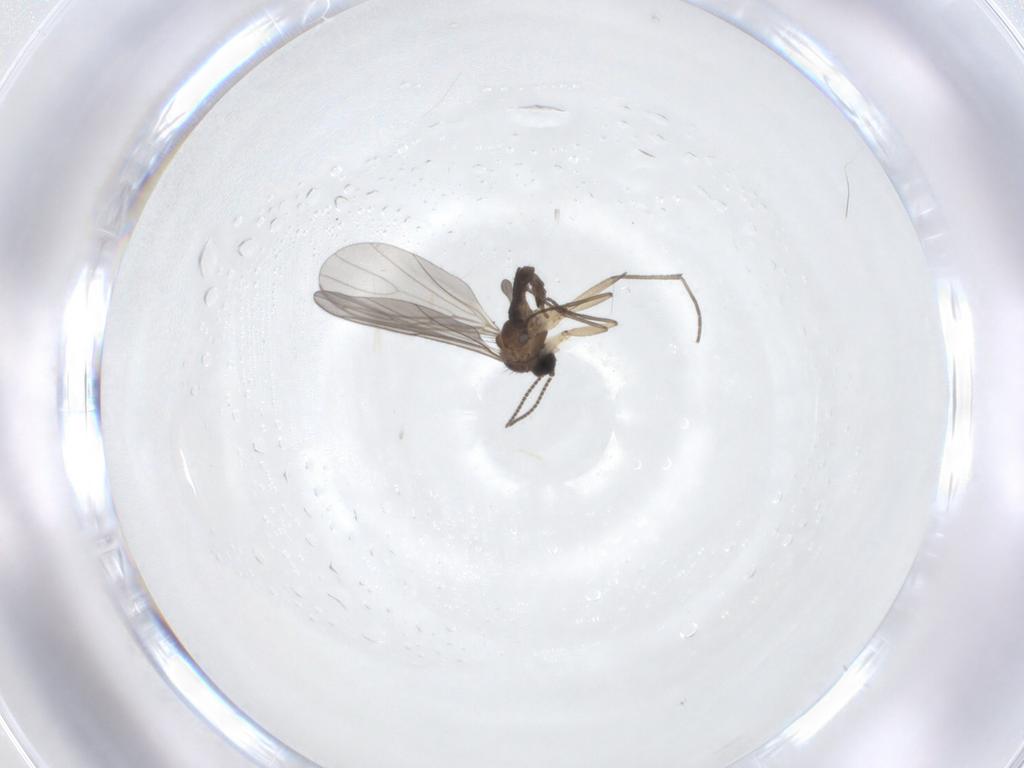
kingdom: Animalia
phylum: Arthropoda
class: Insecta
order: Diptera
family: Sciaridae
